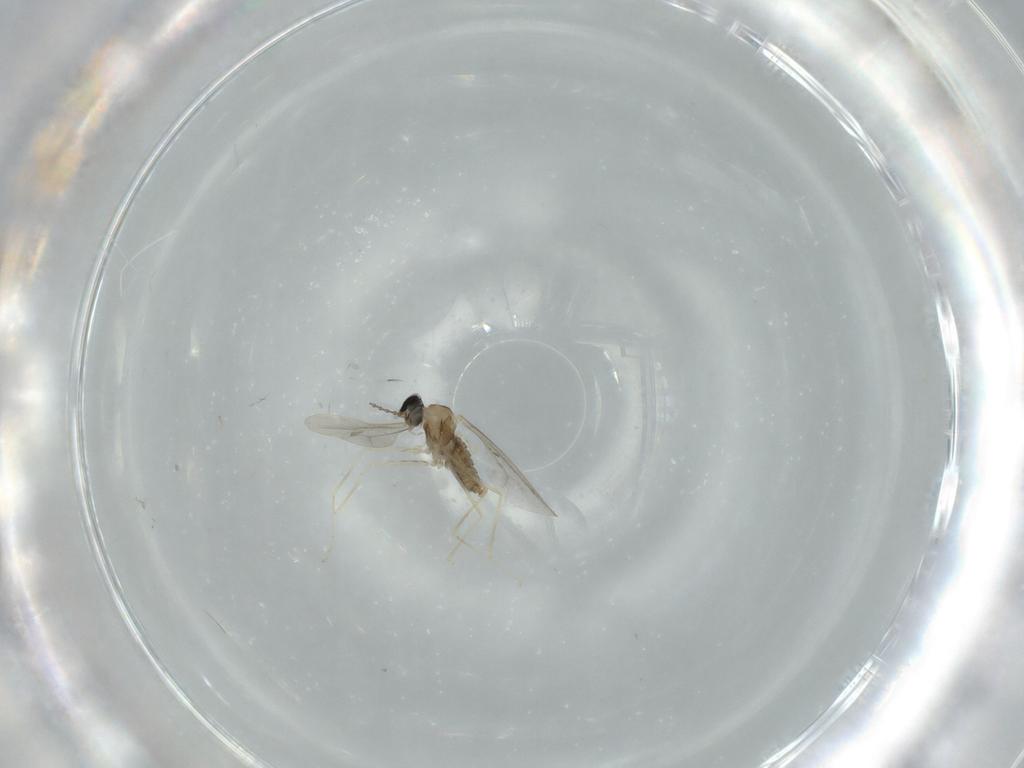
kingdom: Animalia
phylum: Arthropoda
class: Insecta
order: Diptera
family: Cecidomyiidae
